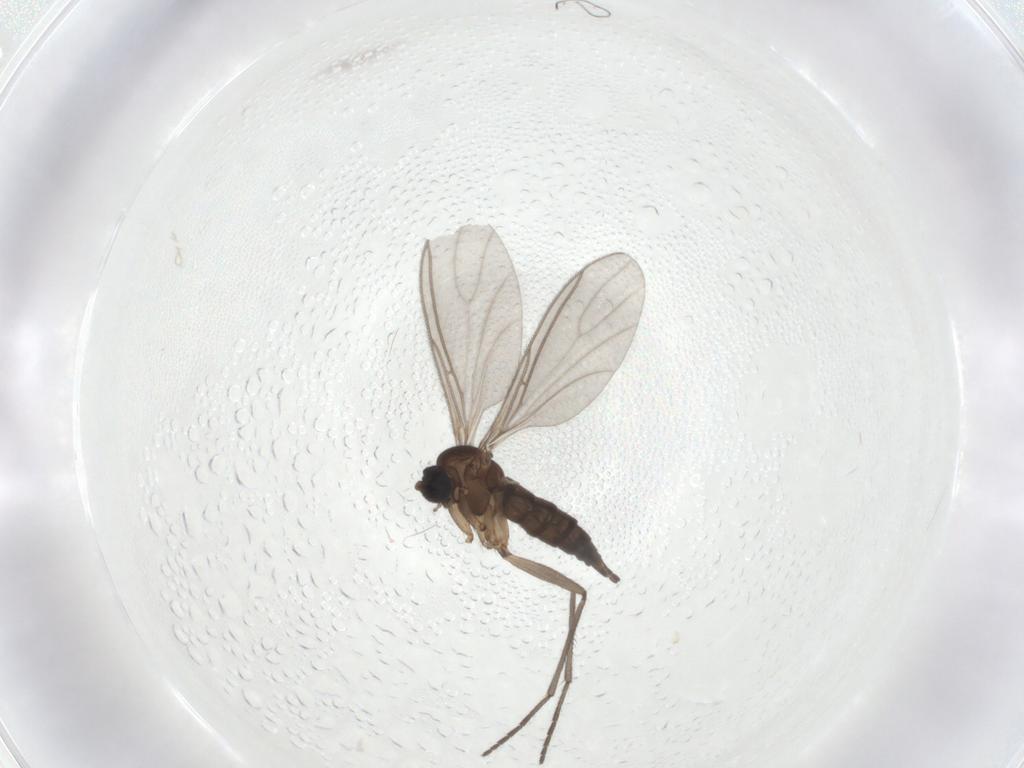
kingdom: Animalia
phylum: Arthropoda
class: Insecta
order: Diptera
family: Sciaridae
